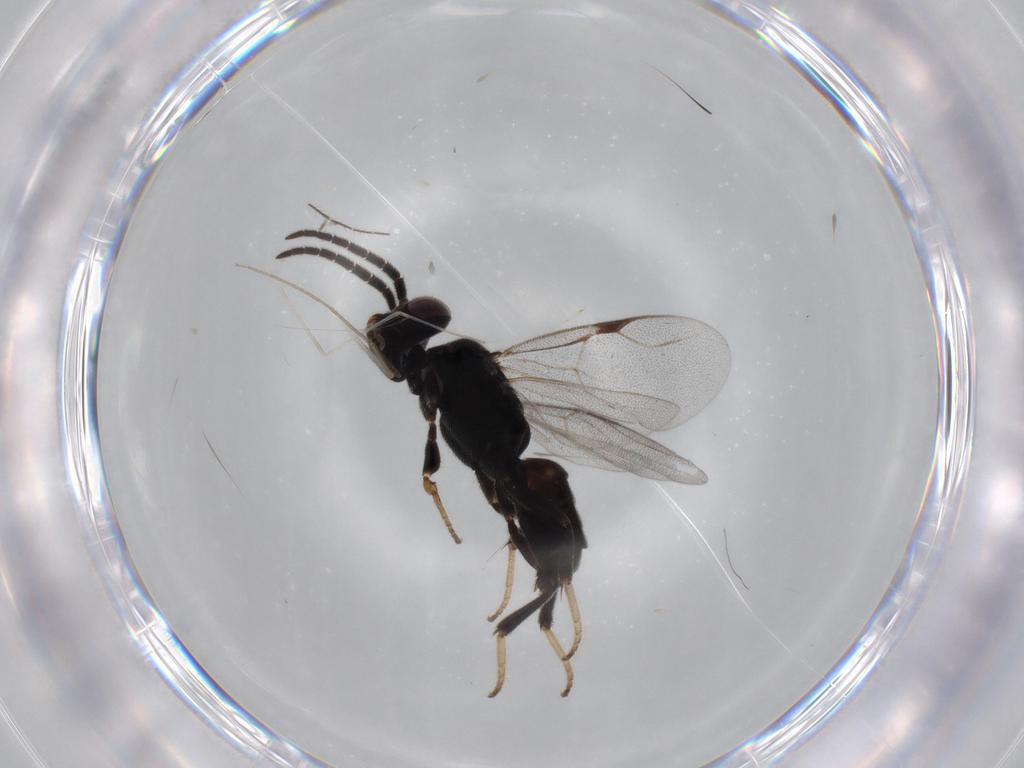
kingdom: Animalia
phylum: Arthropoda
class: Insecta
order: Hymenoptera
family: Dryinidae
